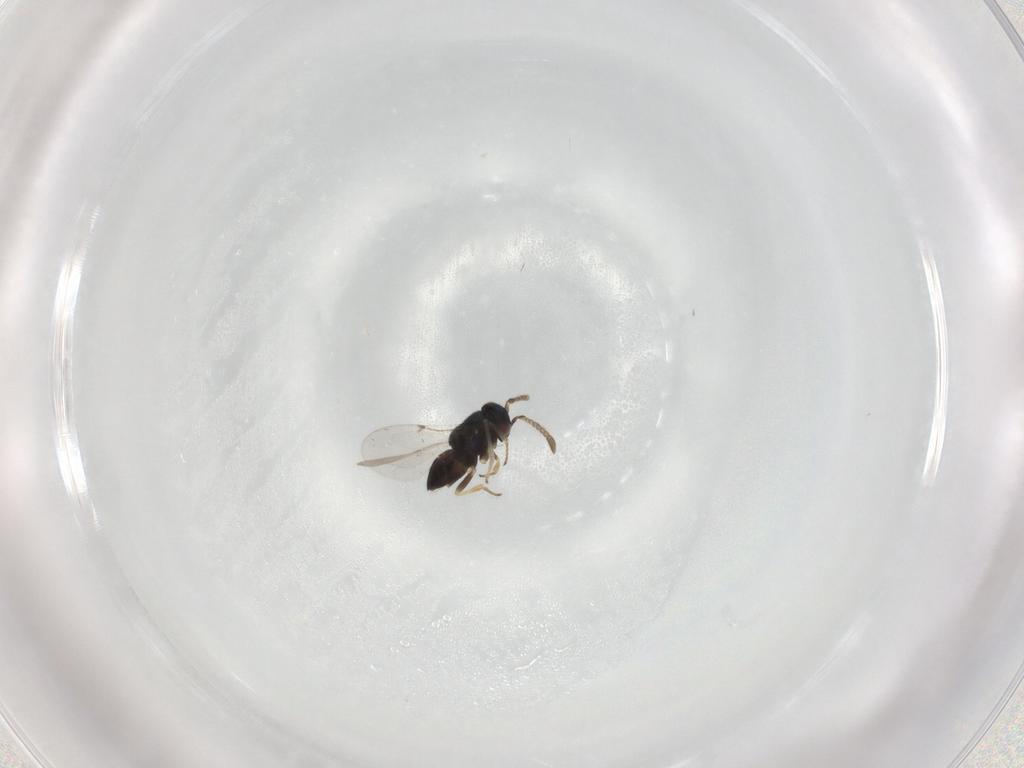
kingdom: Animalia
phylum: Arthropoda
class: Insecta
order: Hymenoptera
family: Encyrtidae
